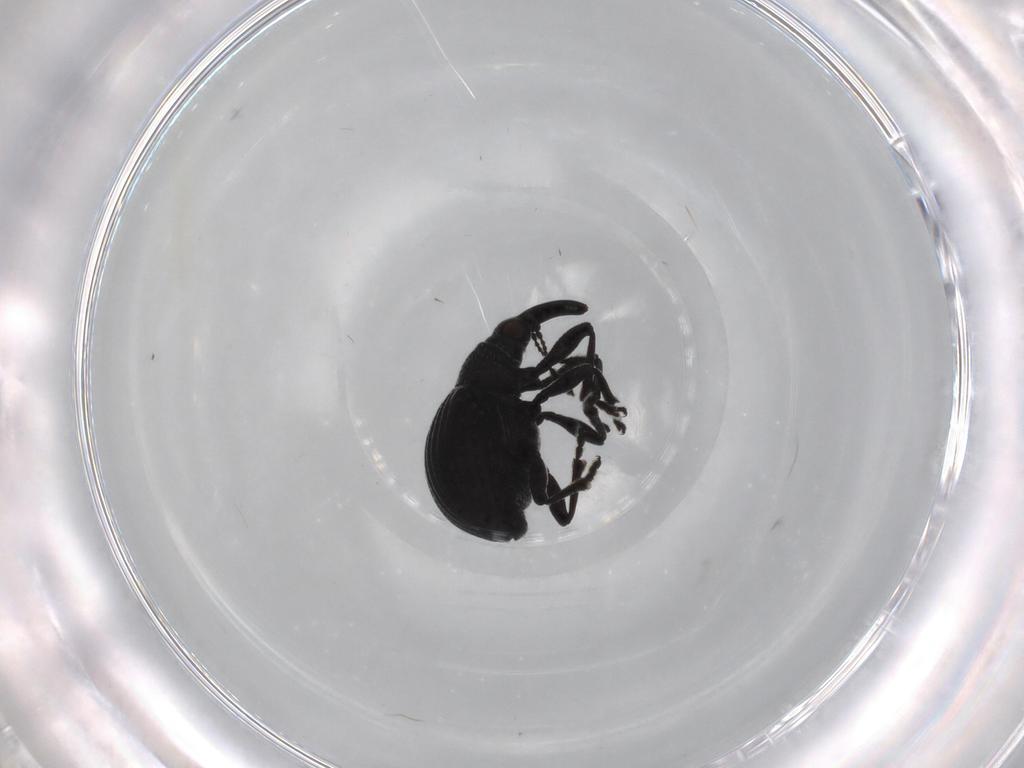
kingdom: Animalia
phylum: Arthropoda
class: Insecta
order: Coleoptera
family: Brentidae
